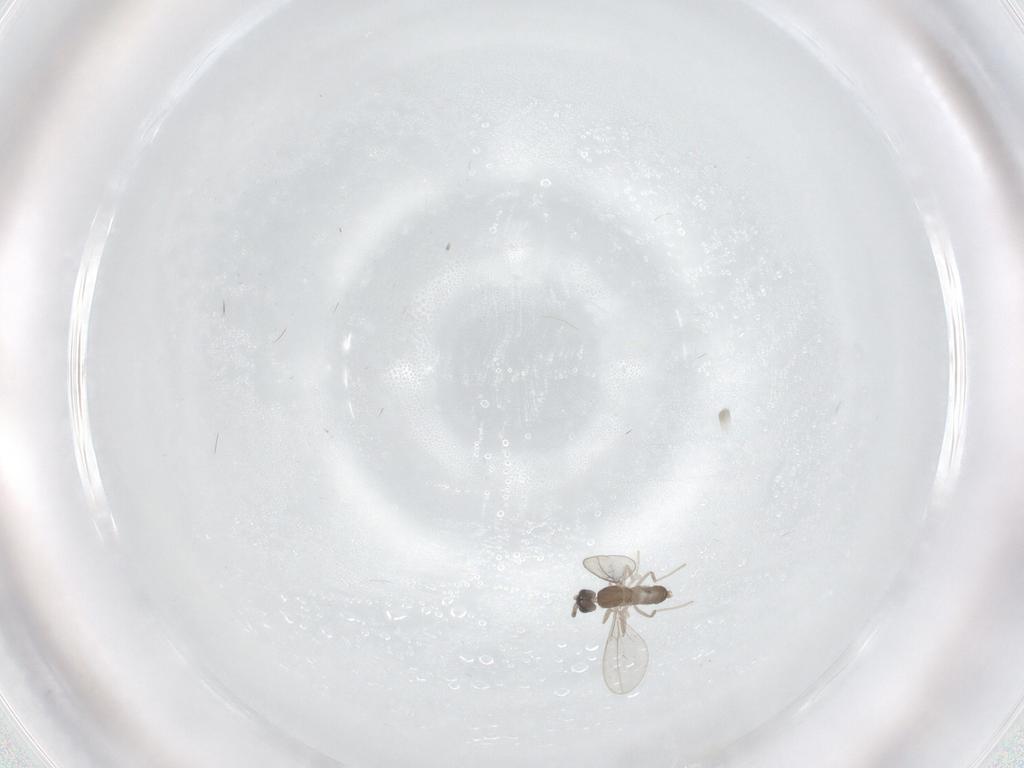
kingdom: Animalia
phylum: Arthropoda
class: Insecta
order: Diptera
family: Cecidomyiidae
